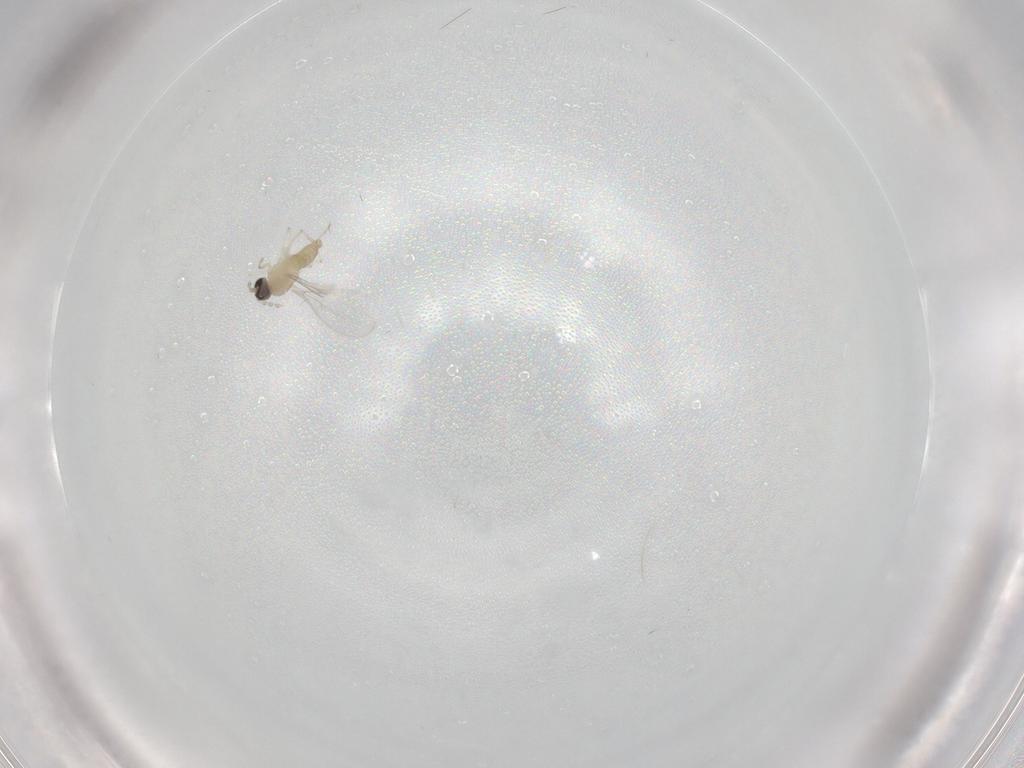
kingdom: Animalia
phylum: Arthropoda
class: Insecta
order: Diptera
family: Cecidomyiidae
